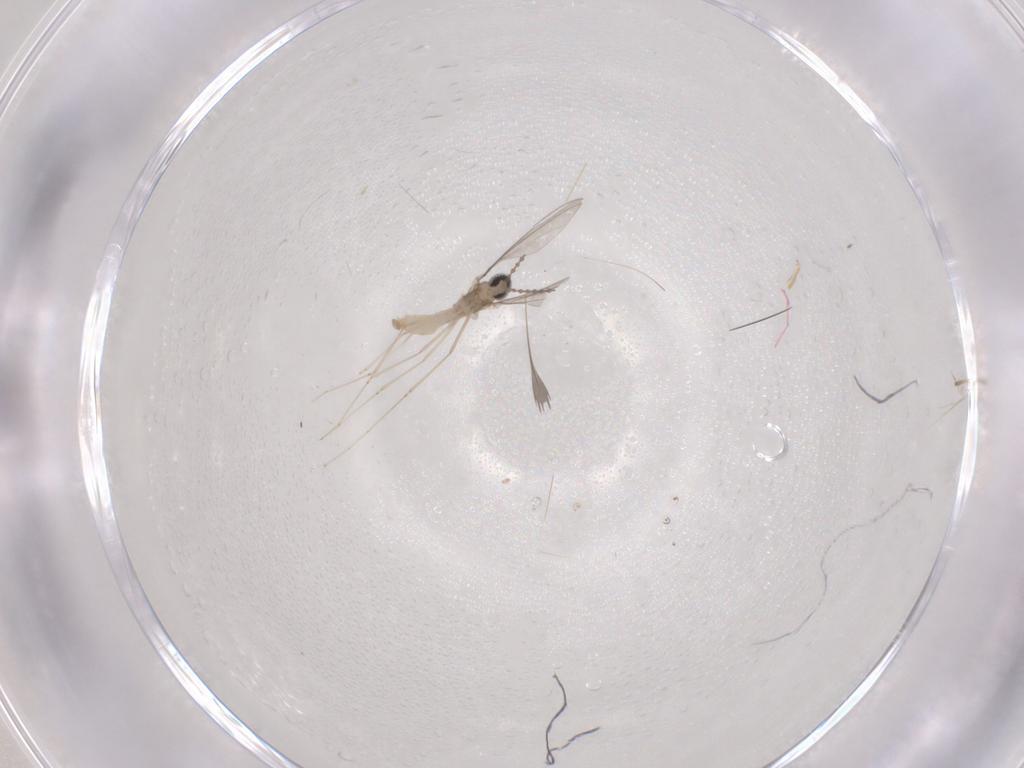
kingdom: Animalia
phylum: Arthropoda
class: Insecta
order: Diptera
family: Cecidomyiidae
